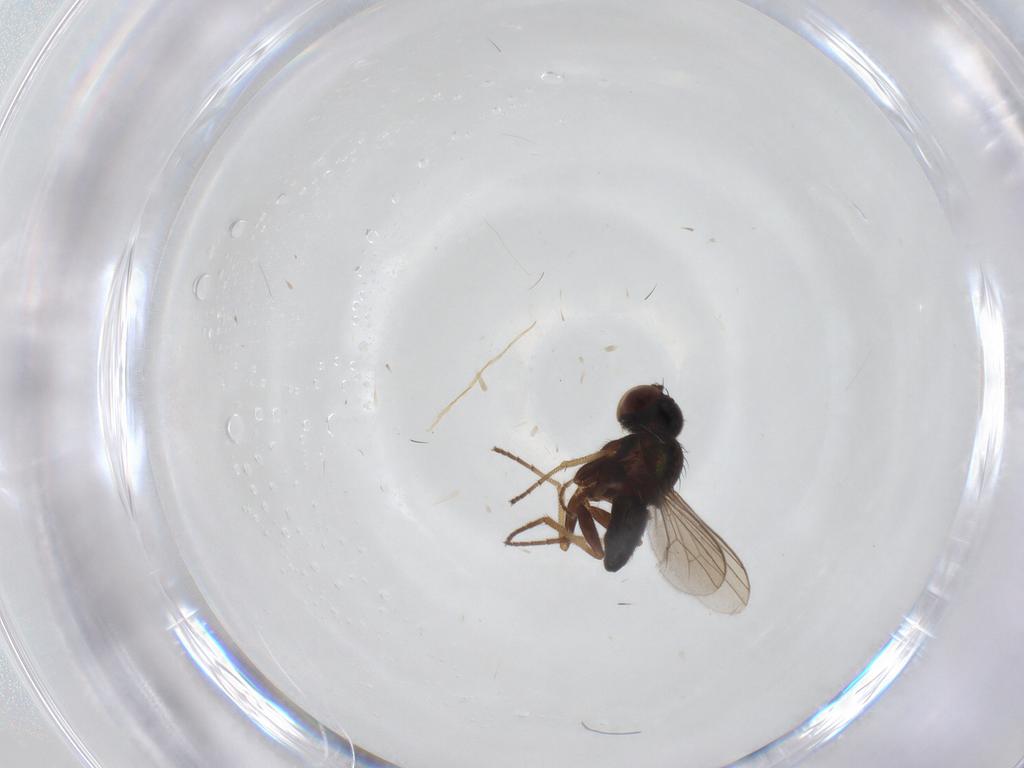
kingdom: Animalia
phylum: Arthropoda
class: Insecta
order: Diptera
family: Dolichopodidae
